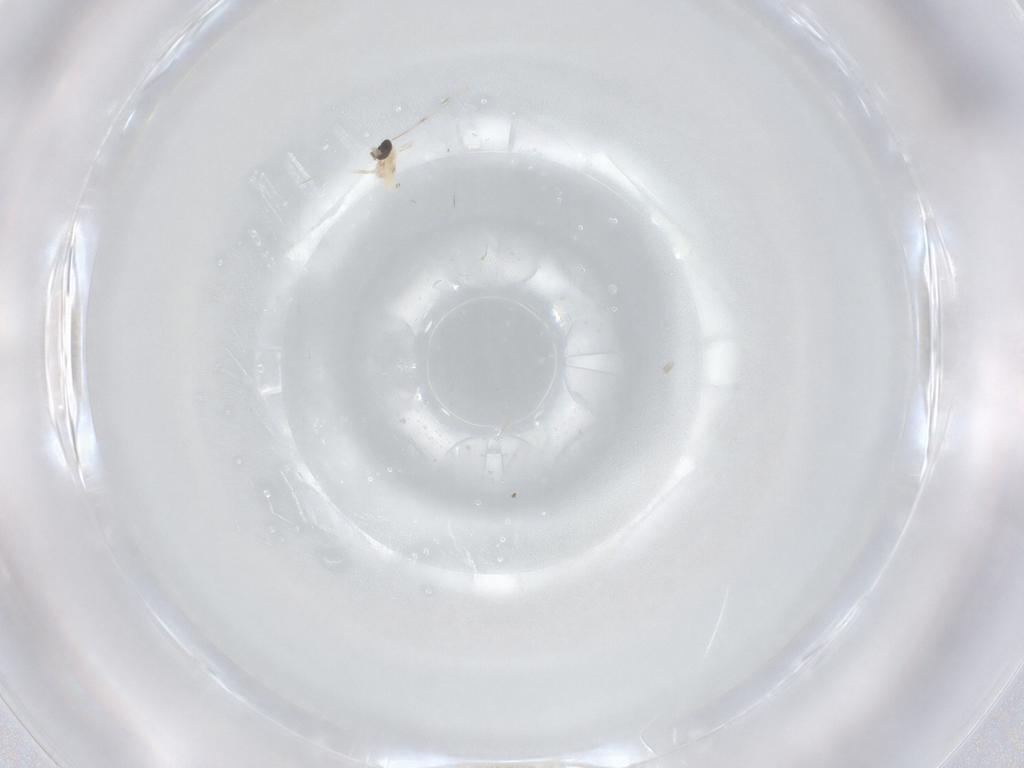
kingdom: Animalia
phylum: Arthropoda
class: Insecta
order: Diptera
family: Cecidomyiidae
